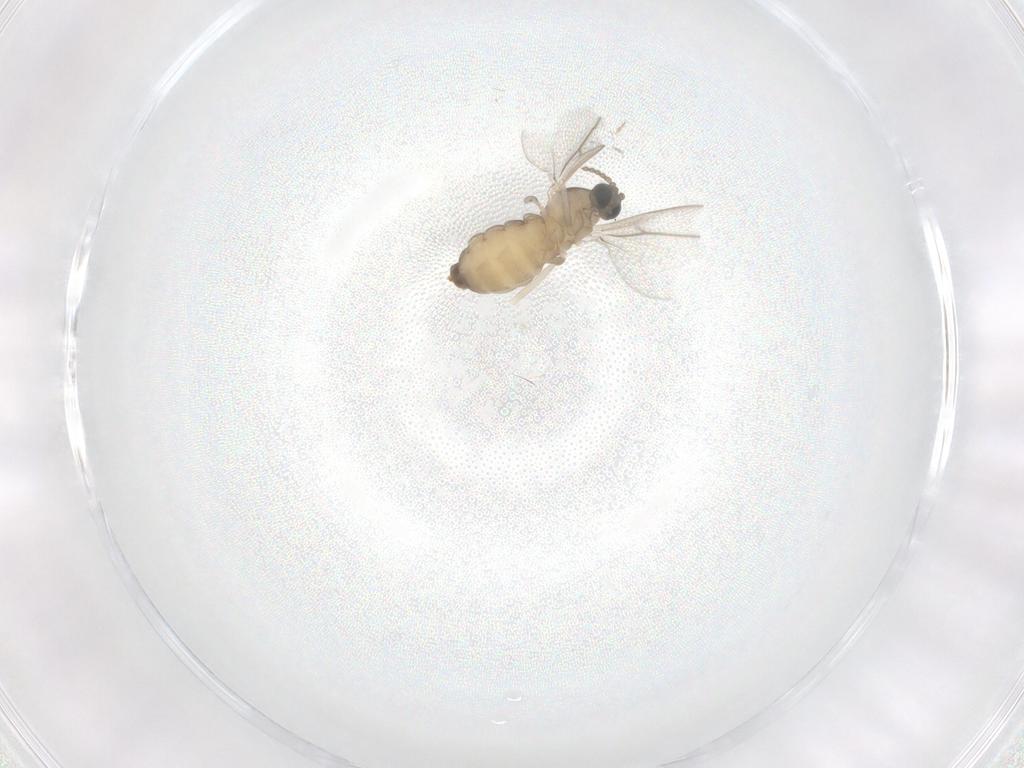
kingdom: Animalia
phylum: Arthropoda
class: Insecta
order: Diptera
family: Cecidomyiidae
